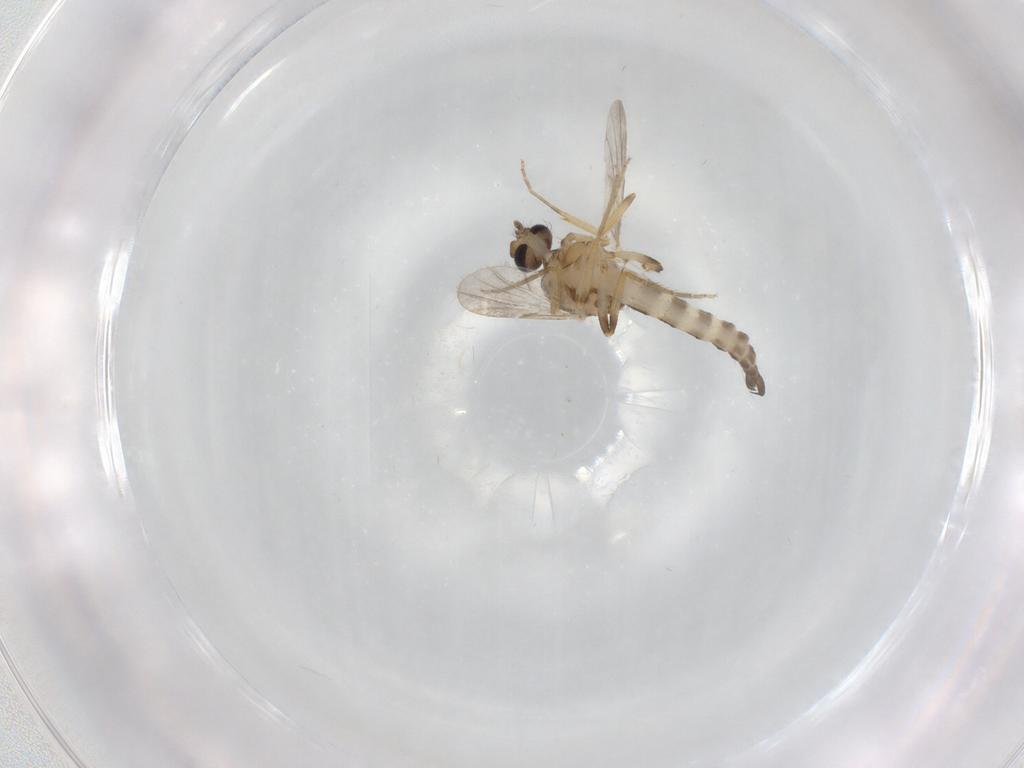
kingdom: Animalia
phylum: Arthropoda
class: Insecta
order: Diptera
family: Ceratopogonidae
